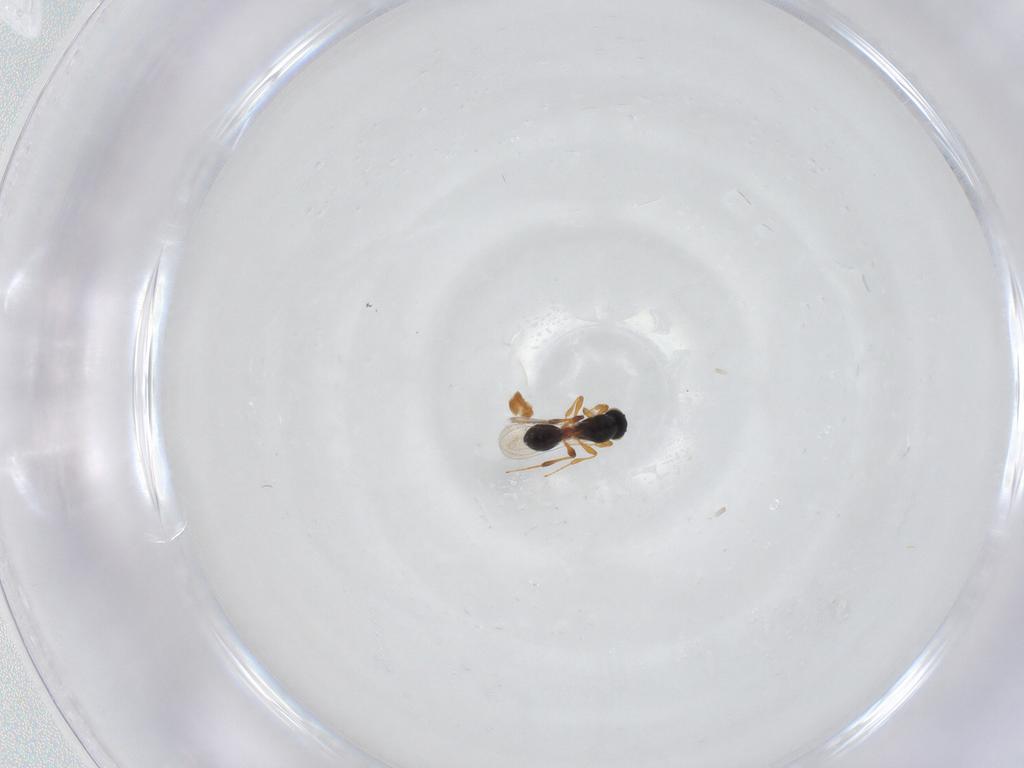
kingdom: Animalia
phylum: Arthropoda
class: Insecta
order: Hymenoptera
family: Platygastridae
